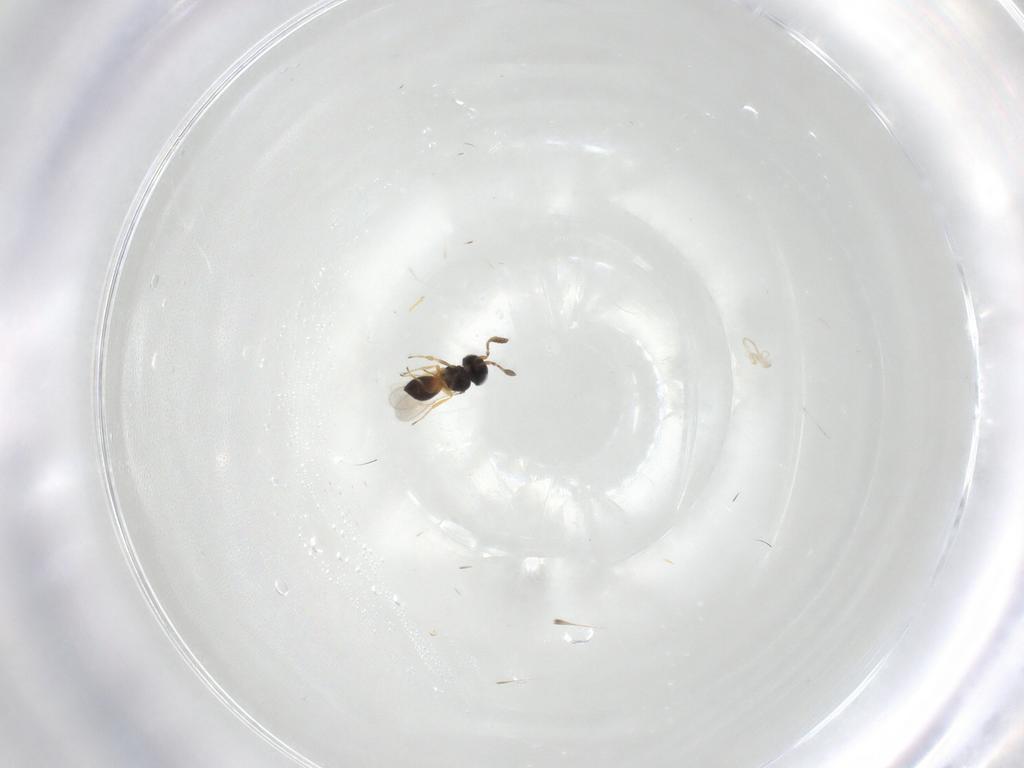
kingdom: Animalia
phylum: Arthropoda
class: Insecta
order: Hymenoptera
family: Scelionidae
